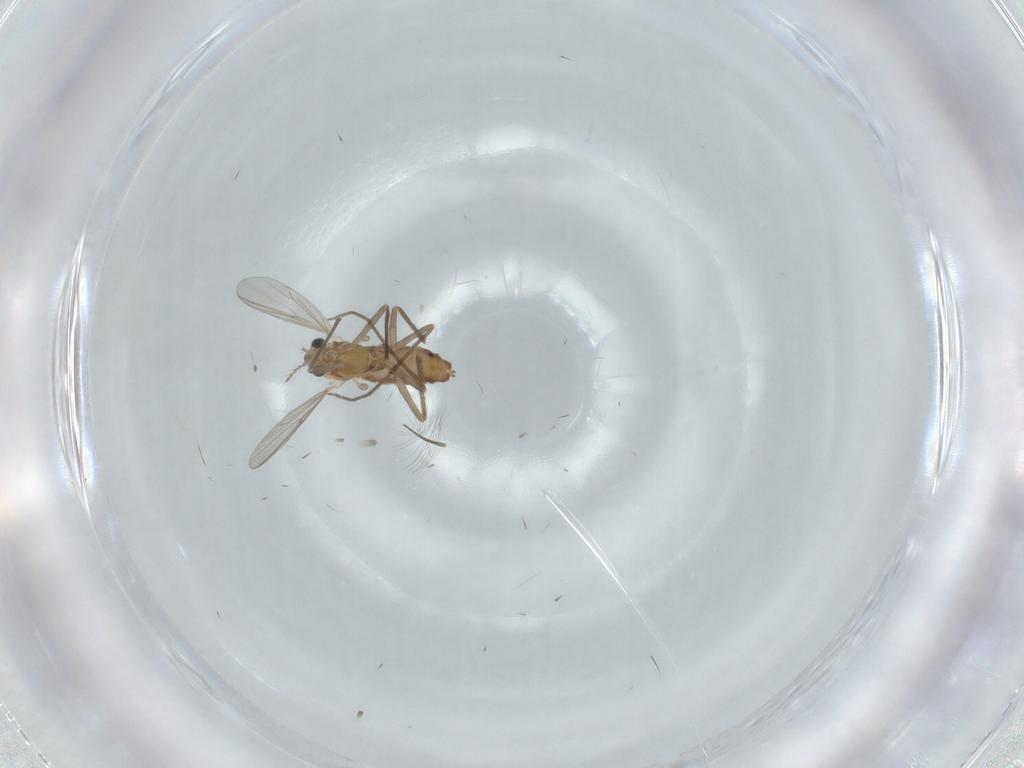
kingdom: Animalia
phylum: Arthropoda
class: Insecta
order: Diptera
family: Chironomidae
